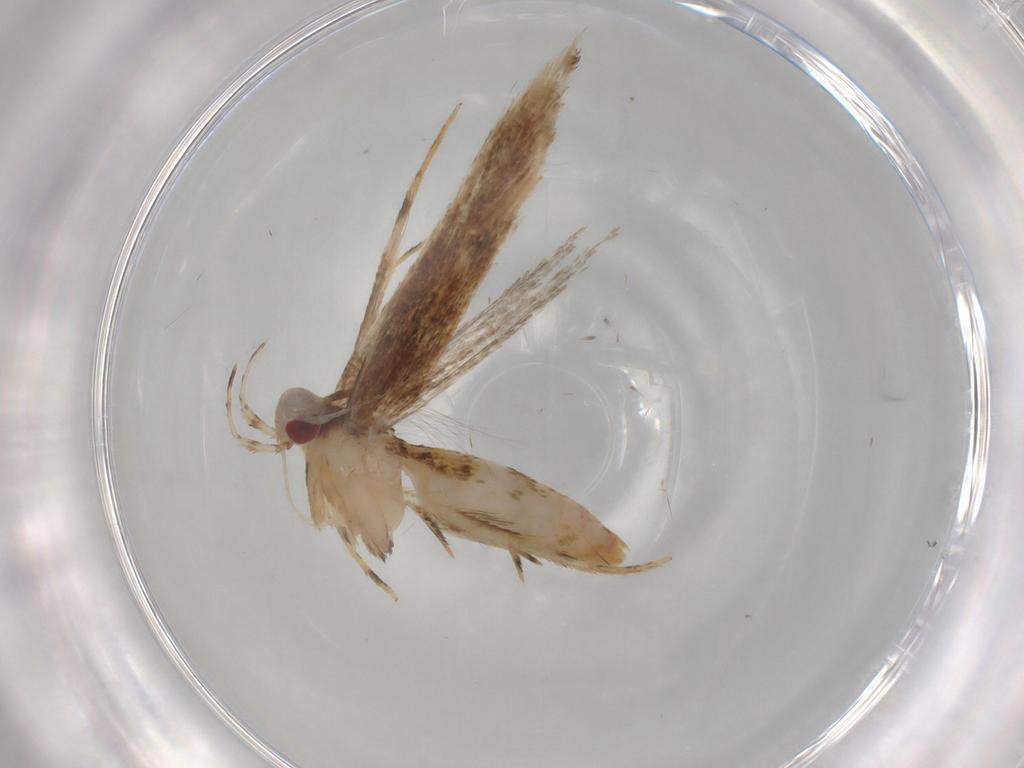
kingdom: Animalia
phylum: Arthropoda
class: Insecta
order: Lepidoptera
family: Cosmopterigidae
